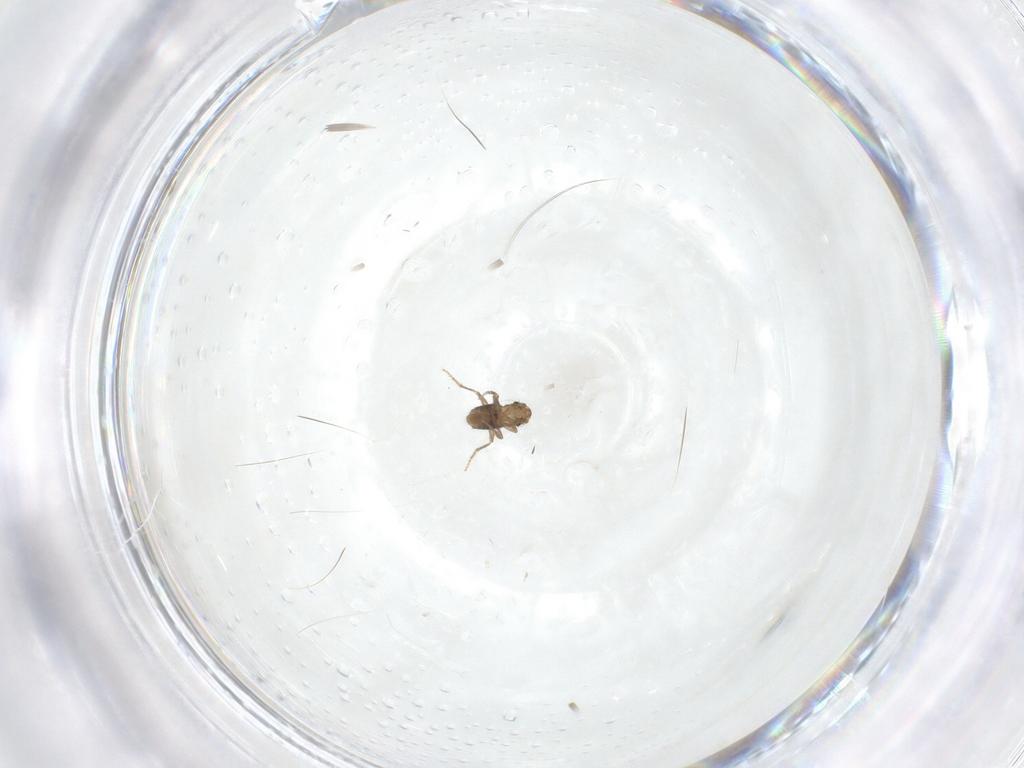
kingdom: Animalia
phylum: Arthropoda
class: Insecta
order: Diptera
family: Phoridae
